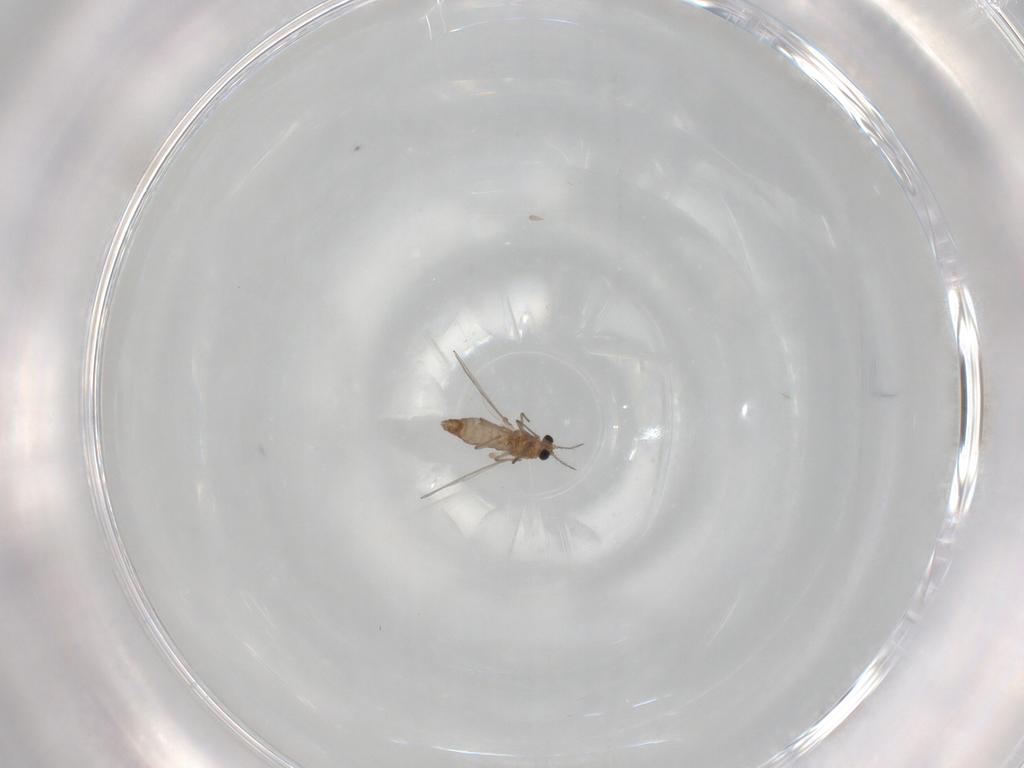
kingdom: Animalia
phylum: Arthropoda
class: Insecta
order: Diptera
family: Chironomidae
